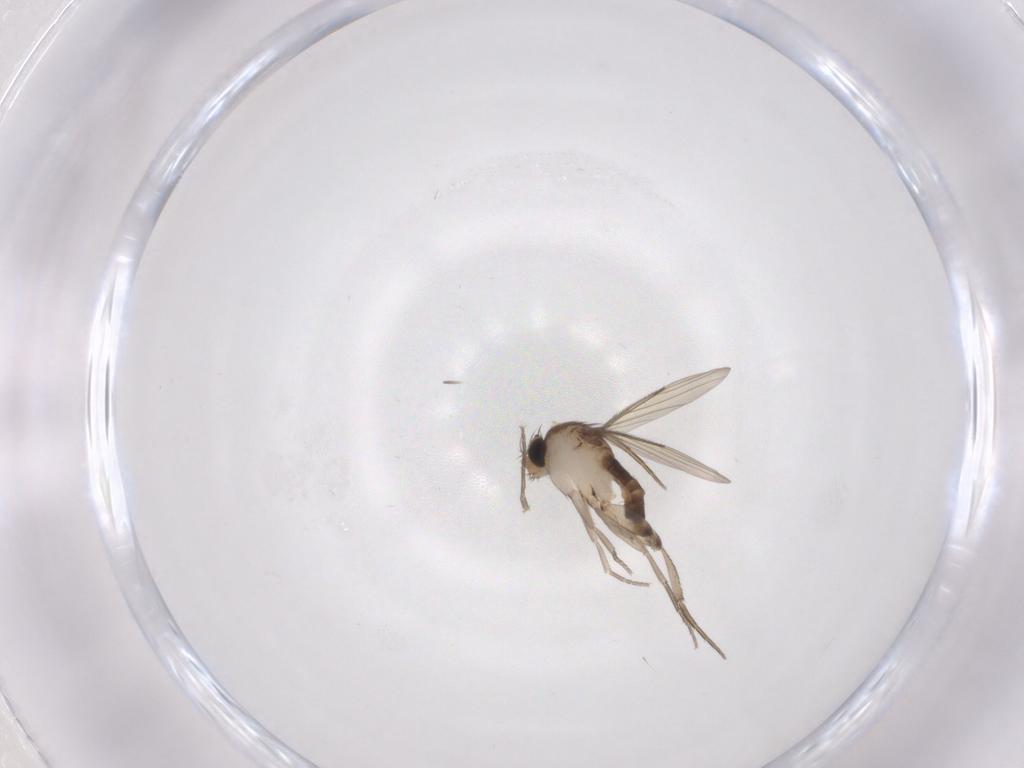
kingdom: Animalia
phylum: Arthropoda
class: Insecta
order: Diptera
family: Phoridae
